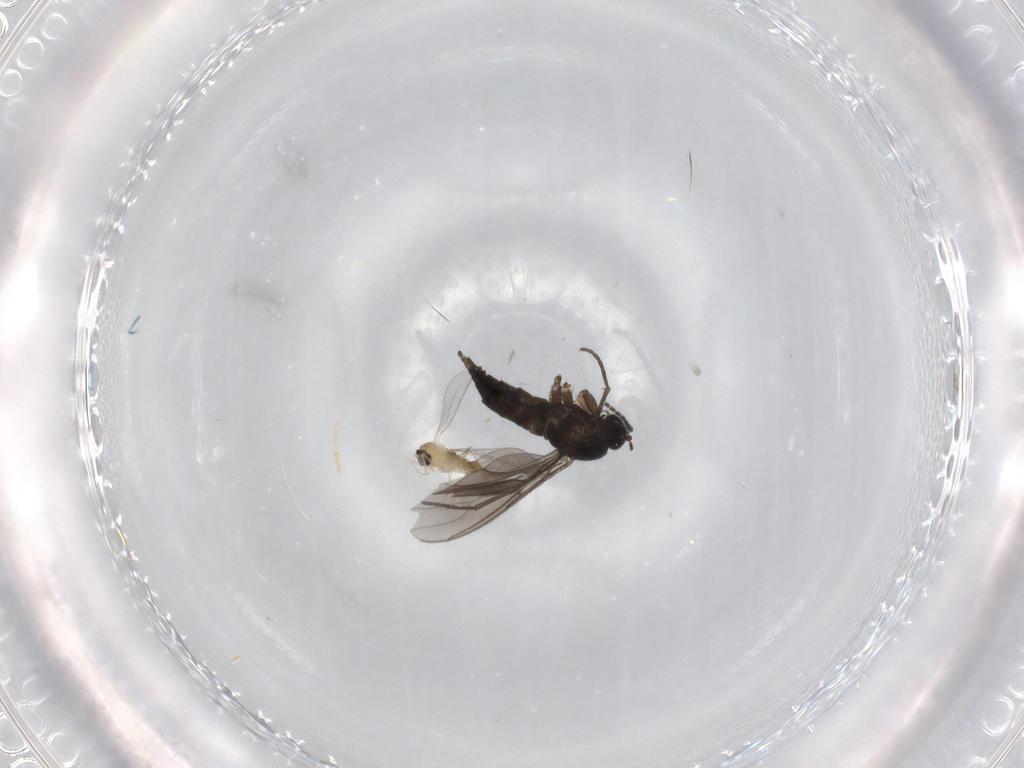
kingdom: Animalia
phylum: Arthropoda
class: Insecta
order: Diptera
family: Sciaridae
